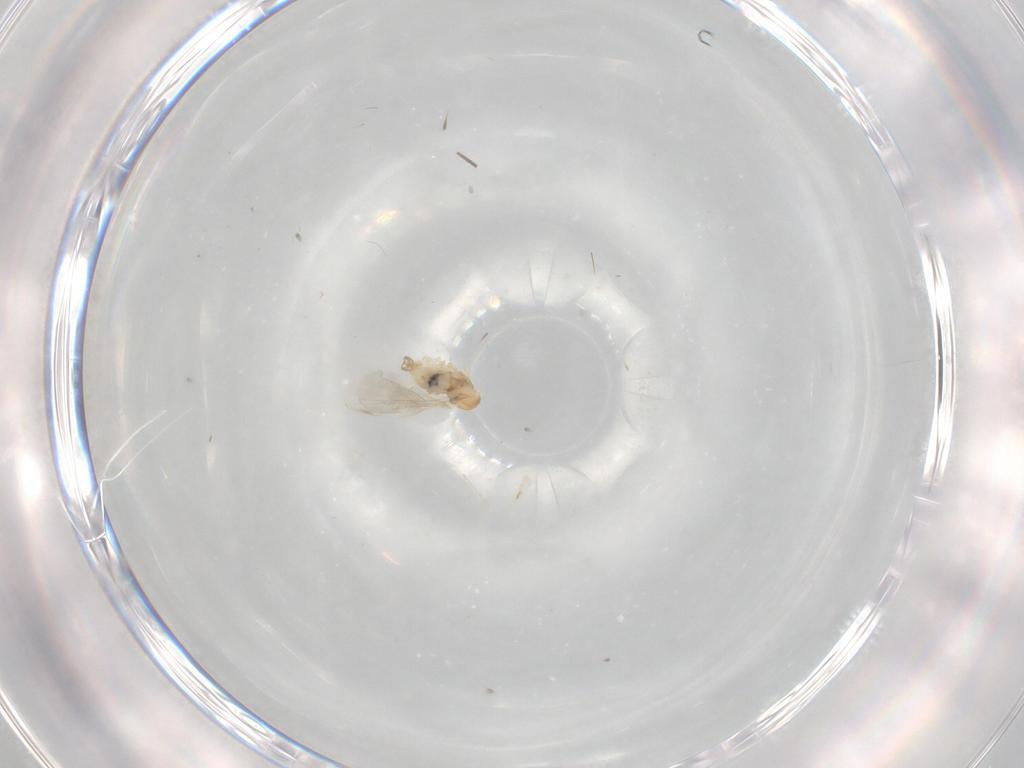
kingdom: Animalia
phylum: Arthropoda
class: Insecta
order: Diptera
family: Cecidomyiidae
